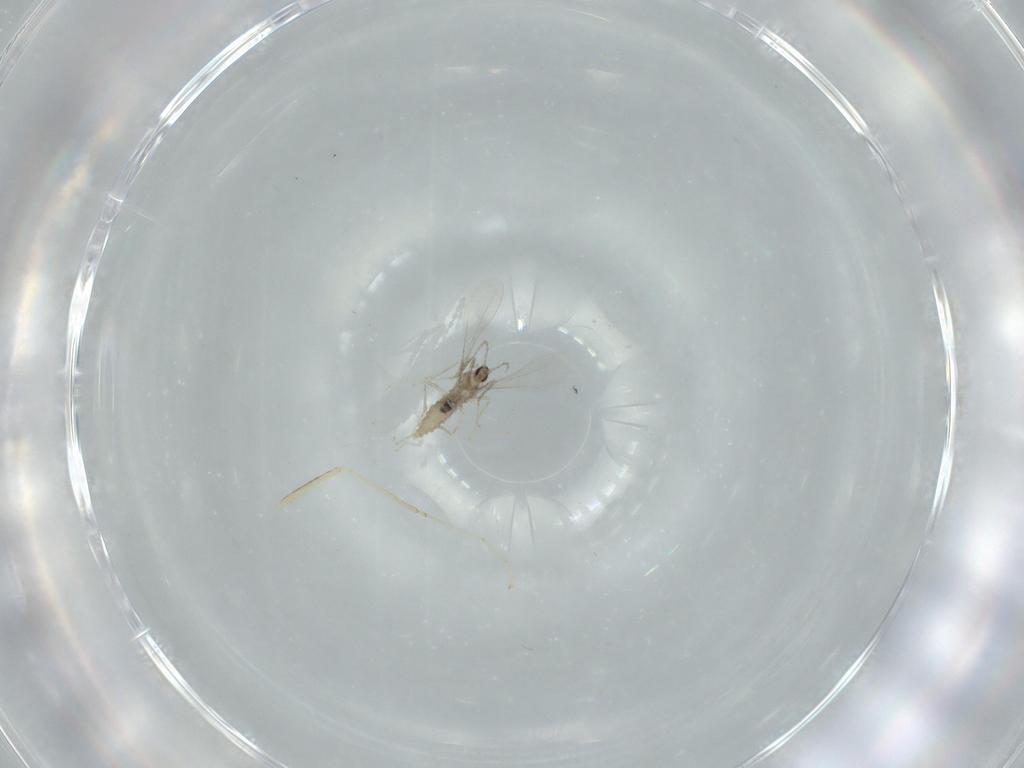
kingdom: Animalia
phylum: Arthropoda
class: Insecta
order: Diptera
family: Cecidomyiidae
